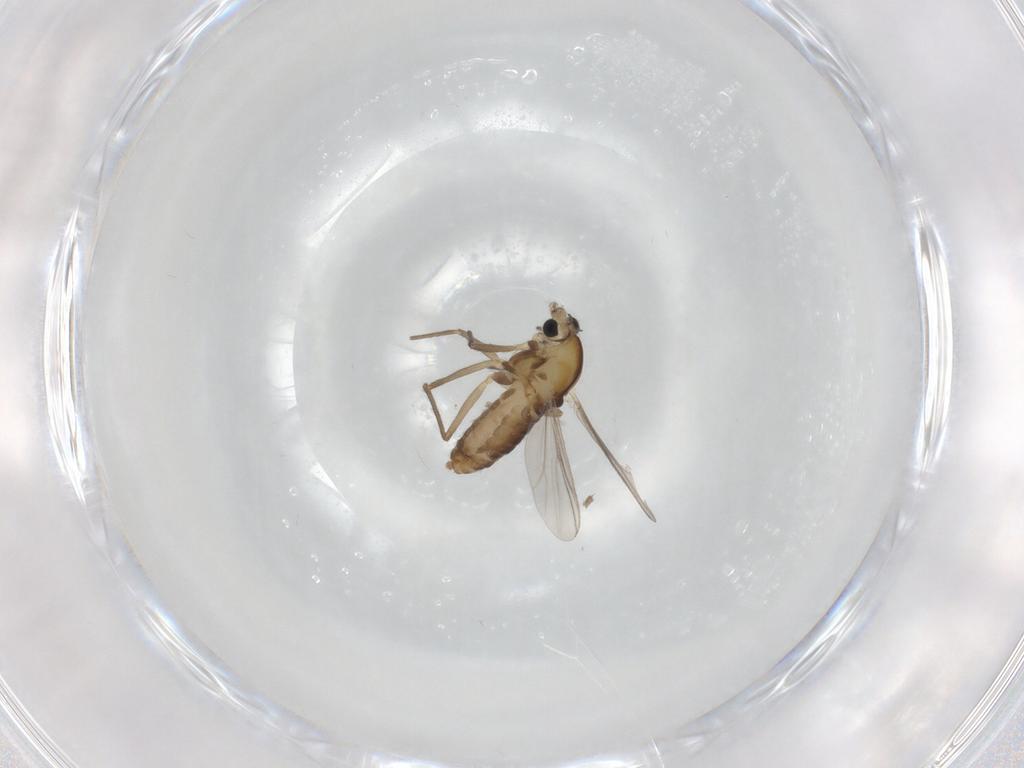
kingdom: Animalia
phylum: Arthropoda
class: Insecta
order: Diptera
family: Chironomidae
